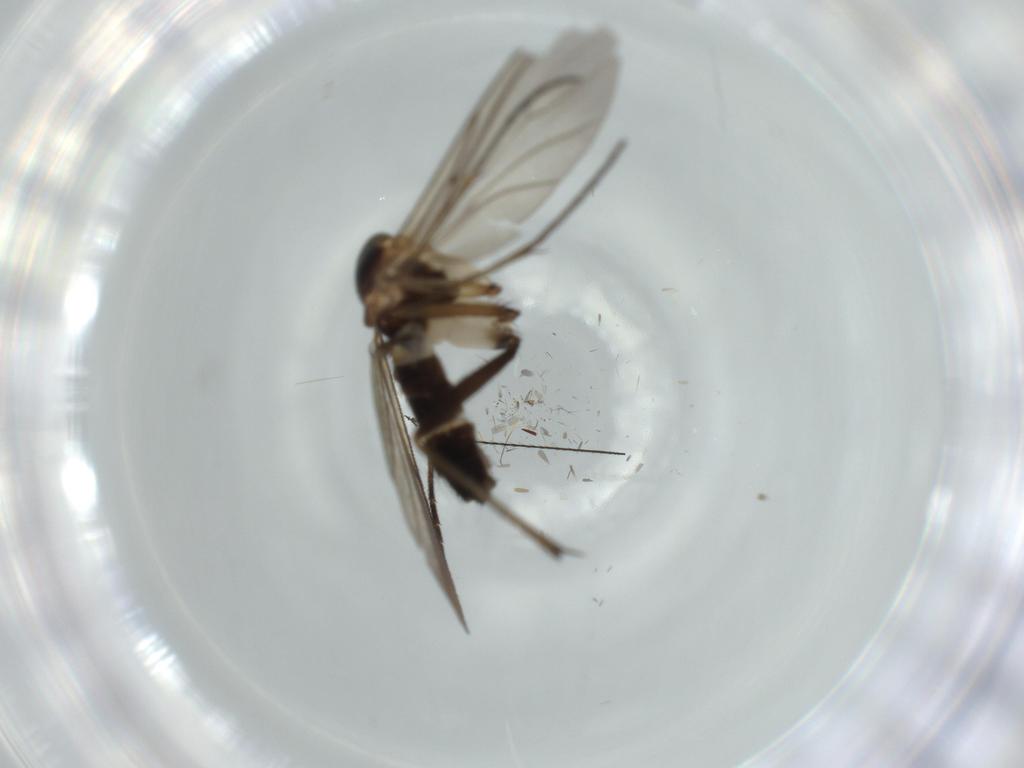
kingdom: Animalia
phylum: Arthropoda
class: Insecta
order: Diptera
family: Sciaridae
